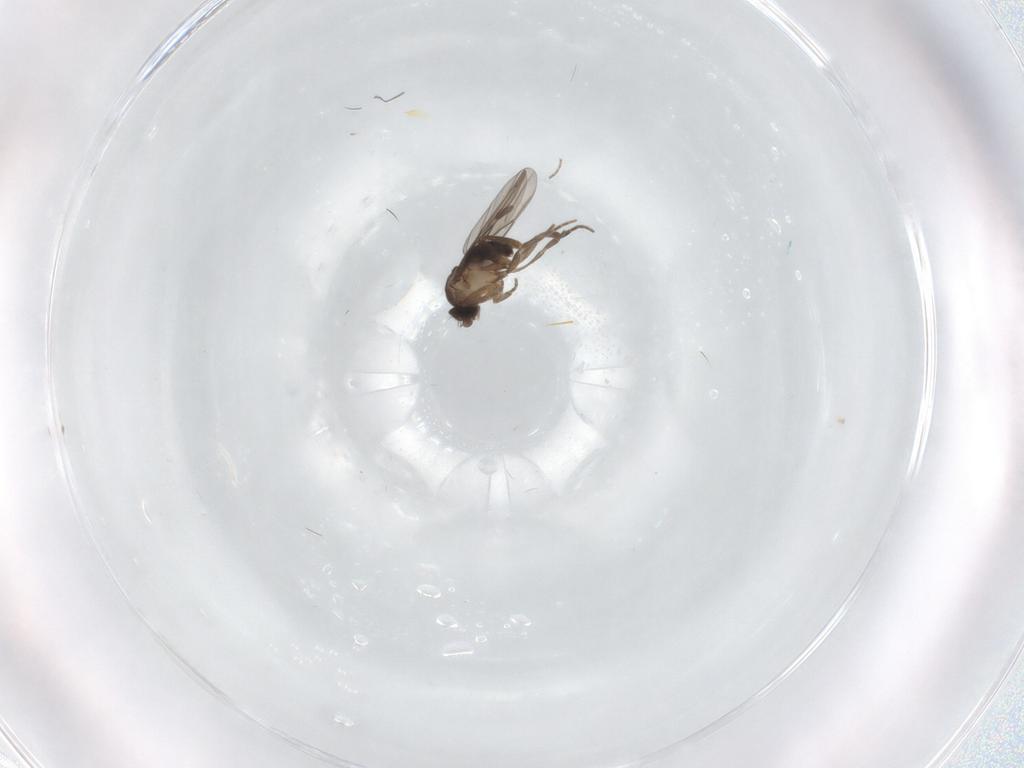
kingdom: Animalia
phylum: Arthropoda
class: Insecta
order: Diptera
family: Phoridae
